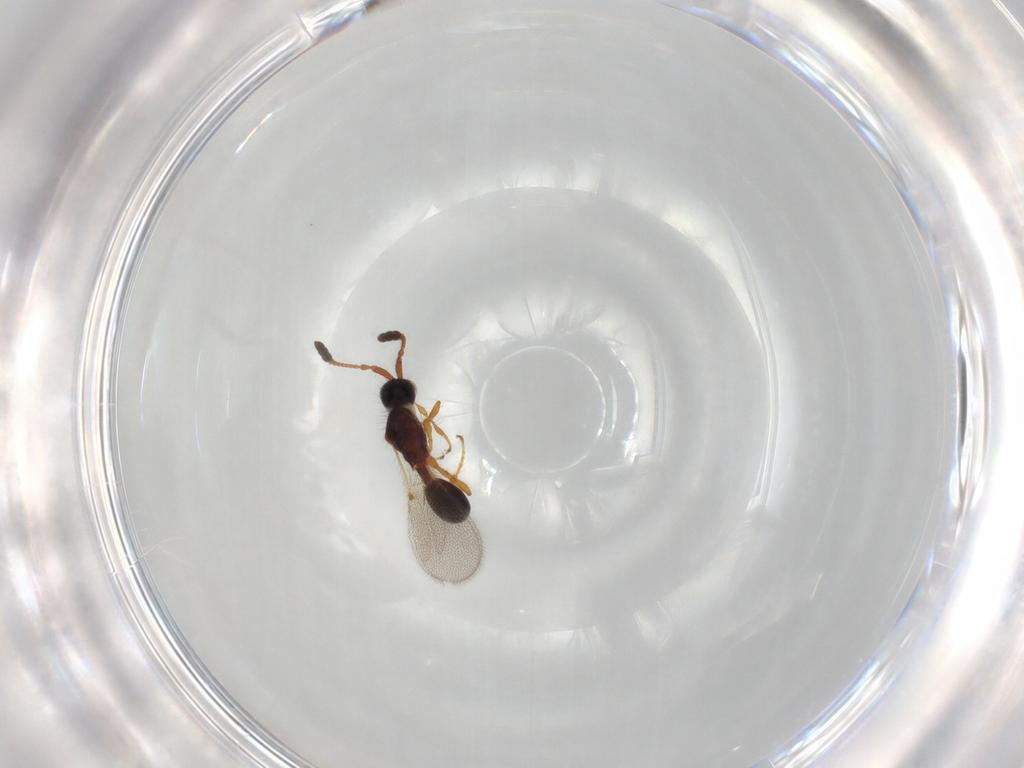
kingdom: Animalia
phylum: Arthropoda
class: Insecta
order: Hymenoptera
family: Diapriidae
